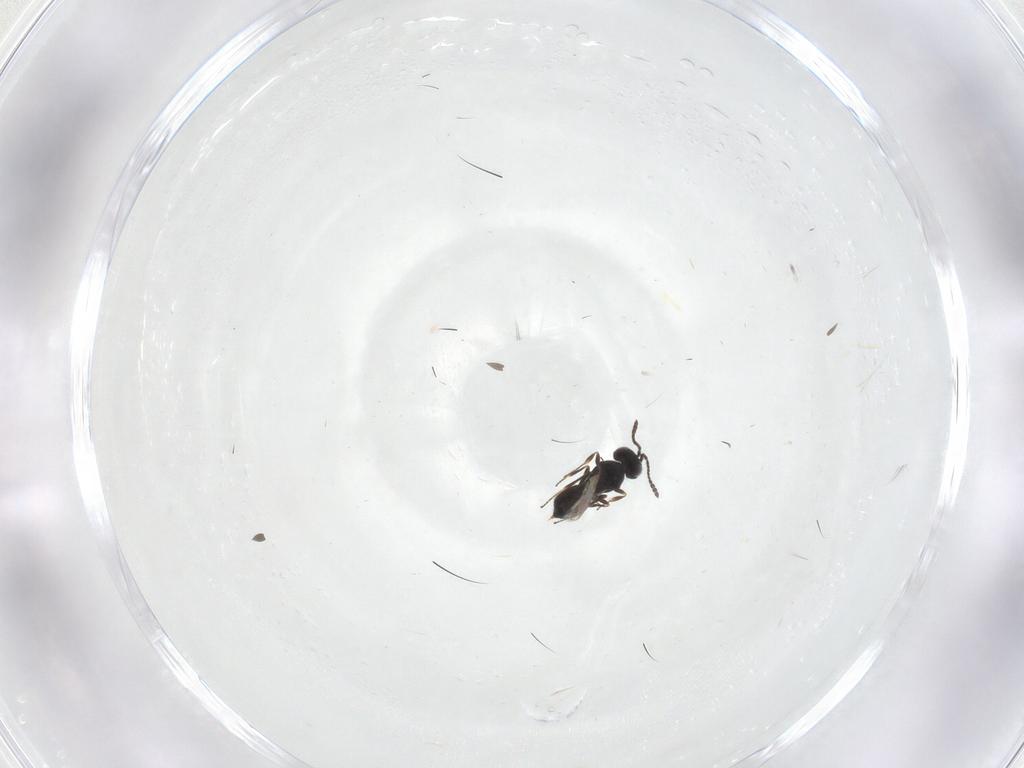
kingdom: Animalia
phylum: Arthropoda
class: Insecta
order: Hymenoptera
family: Scelionidae
